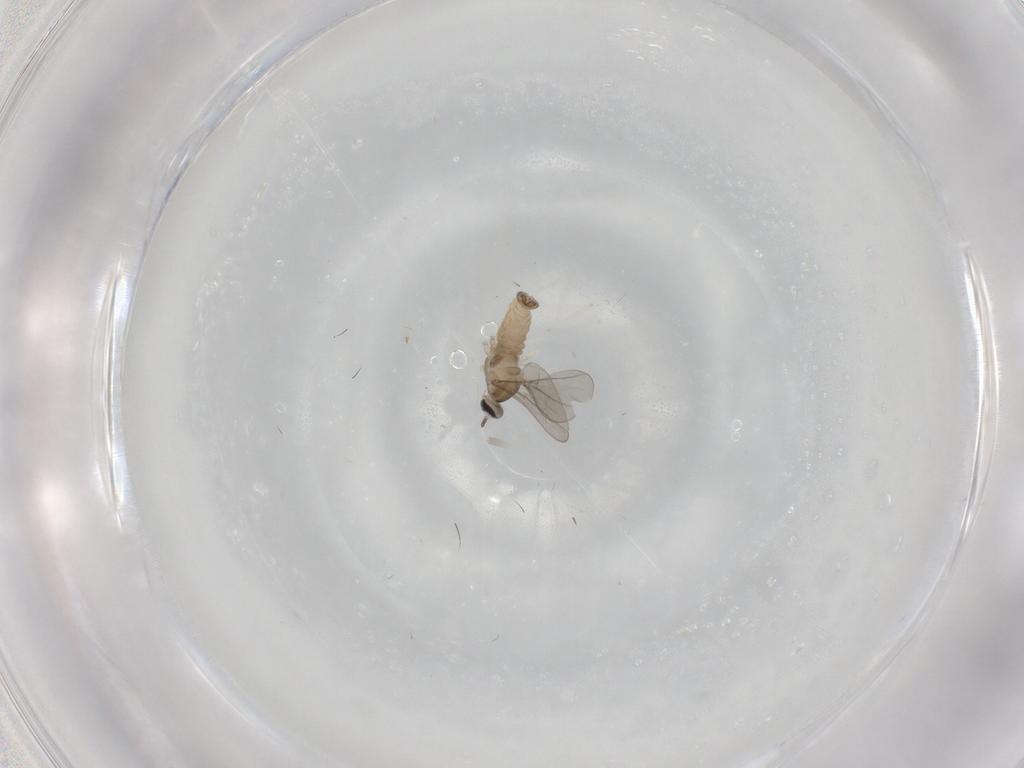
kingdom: Animalia
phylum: Arthropoda
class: Insecta
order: Diptera
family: Cecidomyiidae
